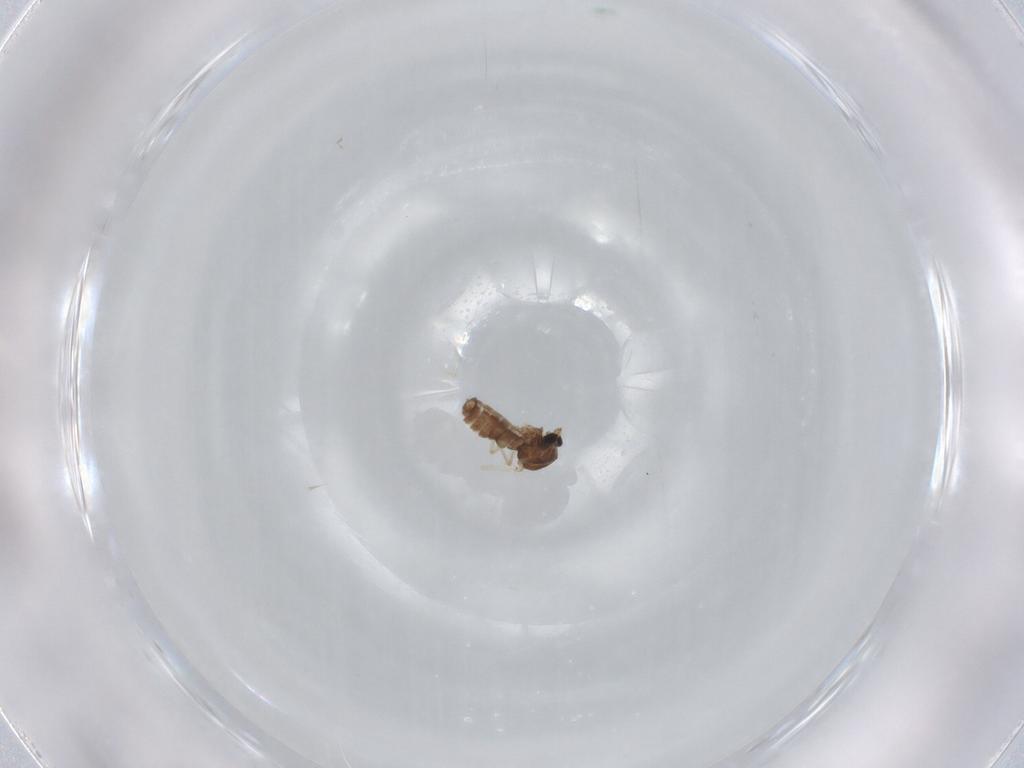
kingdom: Animalia
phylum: Arthropoda
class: Insecta
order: Diptera
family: Ceratopogonidae
